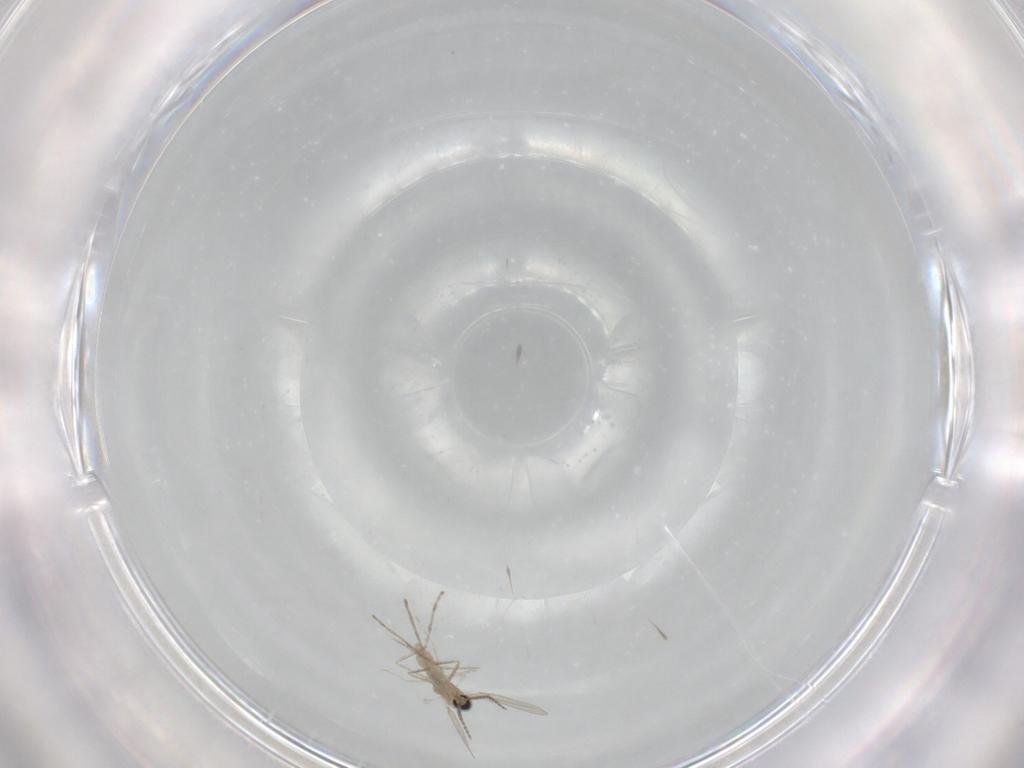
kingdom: Animalia
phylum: Arthropoda
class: Insecta
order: Diptera
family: Cecidomyiidae
